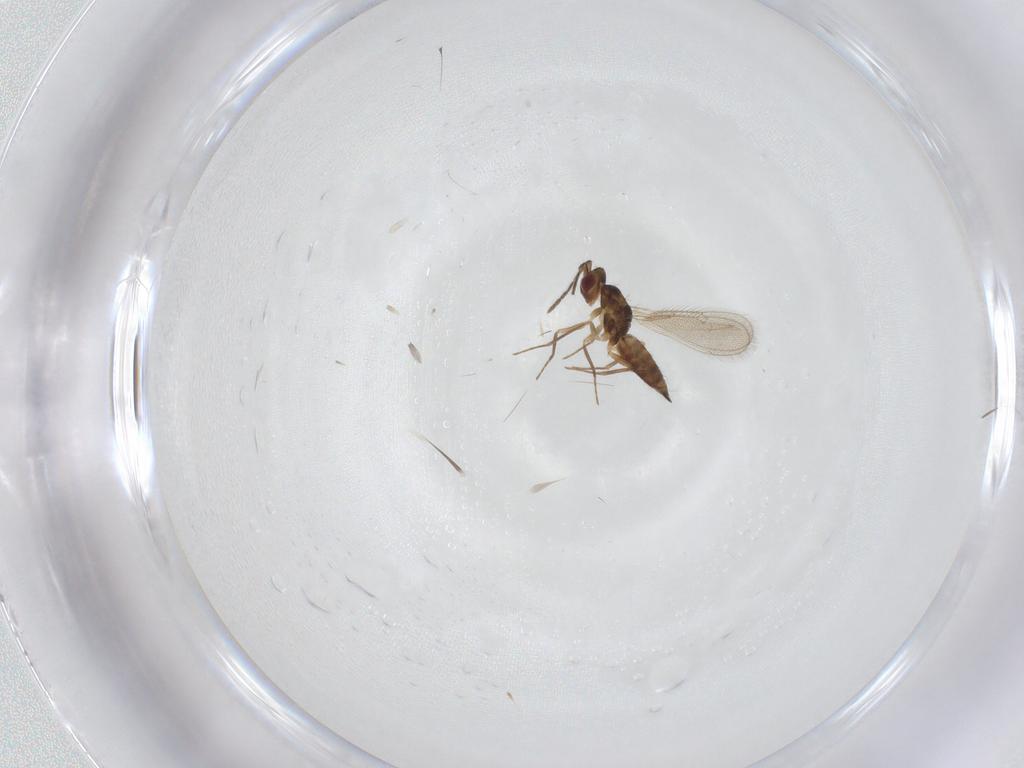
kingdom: Animalia
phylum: Arthropoda
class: Insecta
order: Hymenoptera
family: Eulophidae
